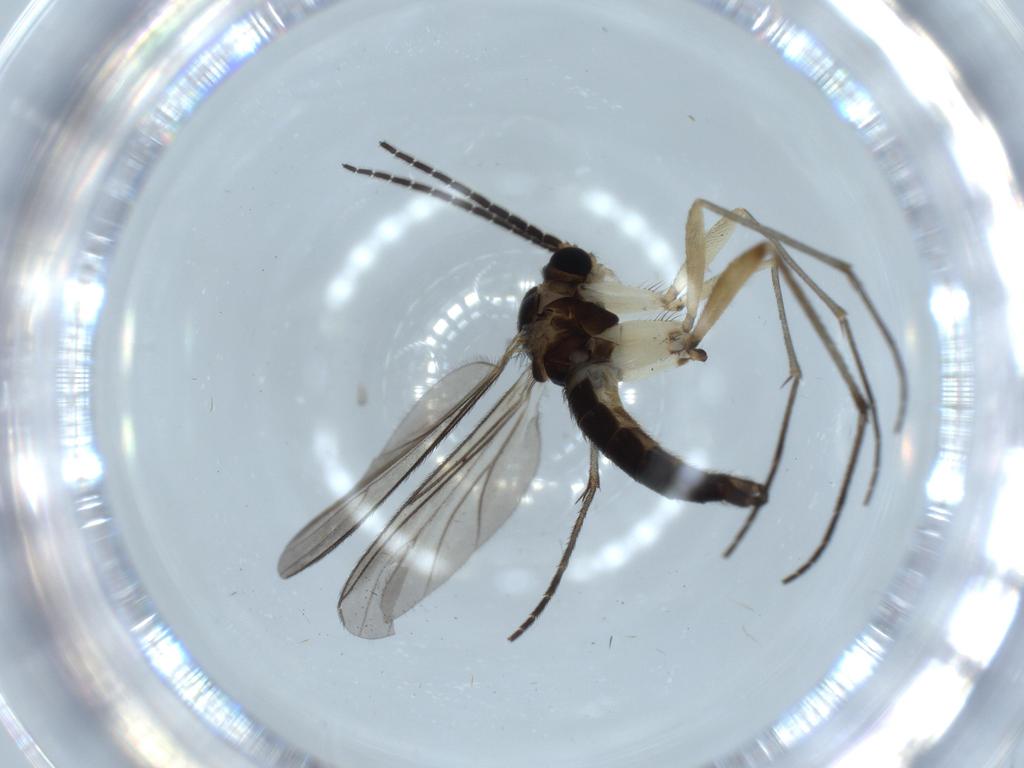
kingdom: Animalia
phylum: Arthropoda
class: Insecta
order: Diptera
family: Sciaridae
